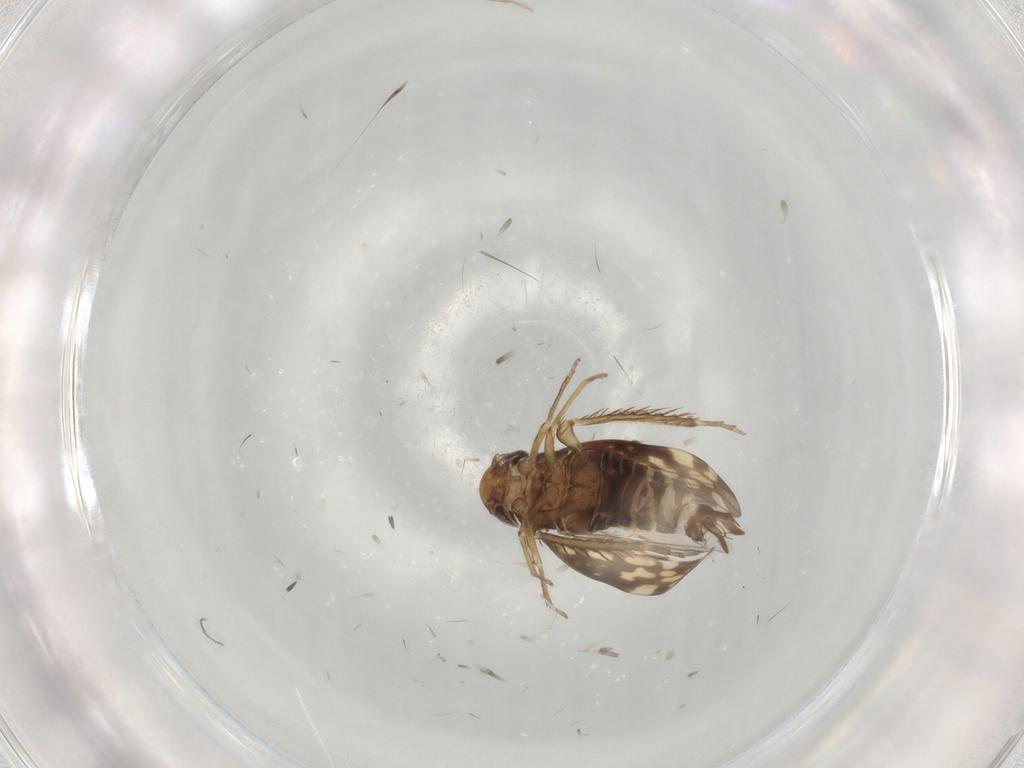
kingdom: Animalia
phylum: Arthropoda
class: Insecta
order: Hemiptera
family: Cicadellidae
